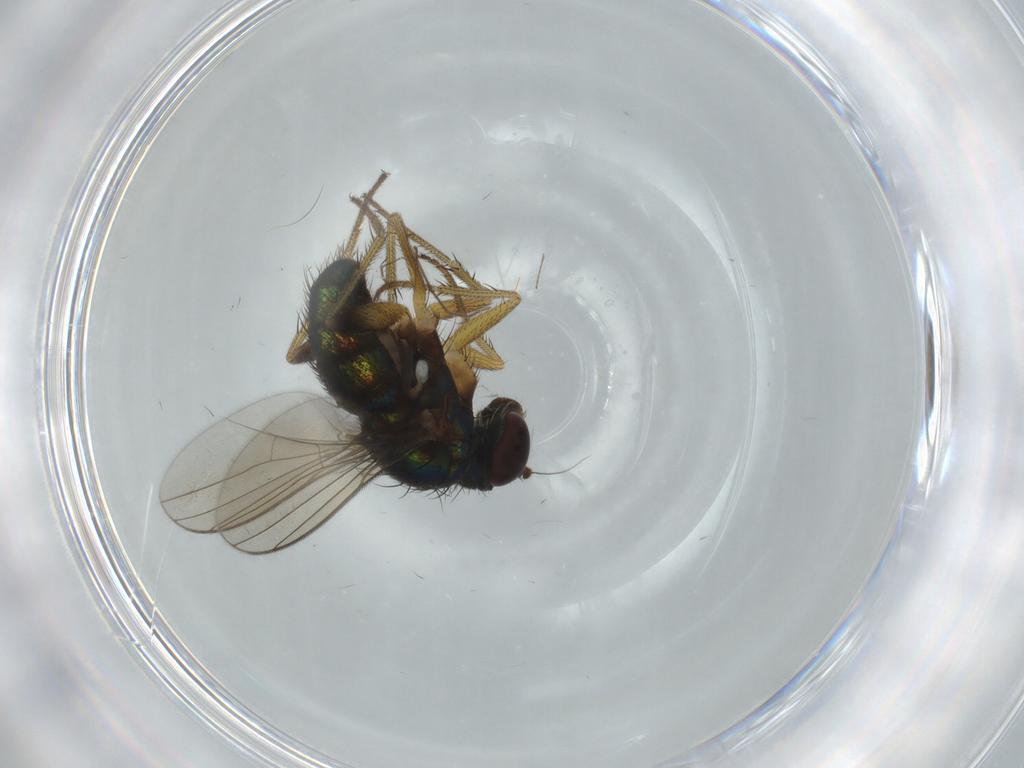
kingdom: Animalia
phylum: Arthropoda
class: Insecta
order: Diptera
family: Dolichopodidae
